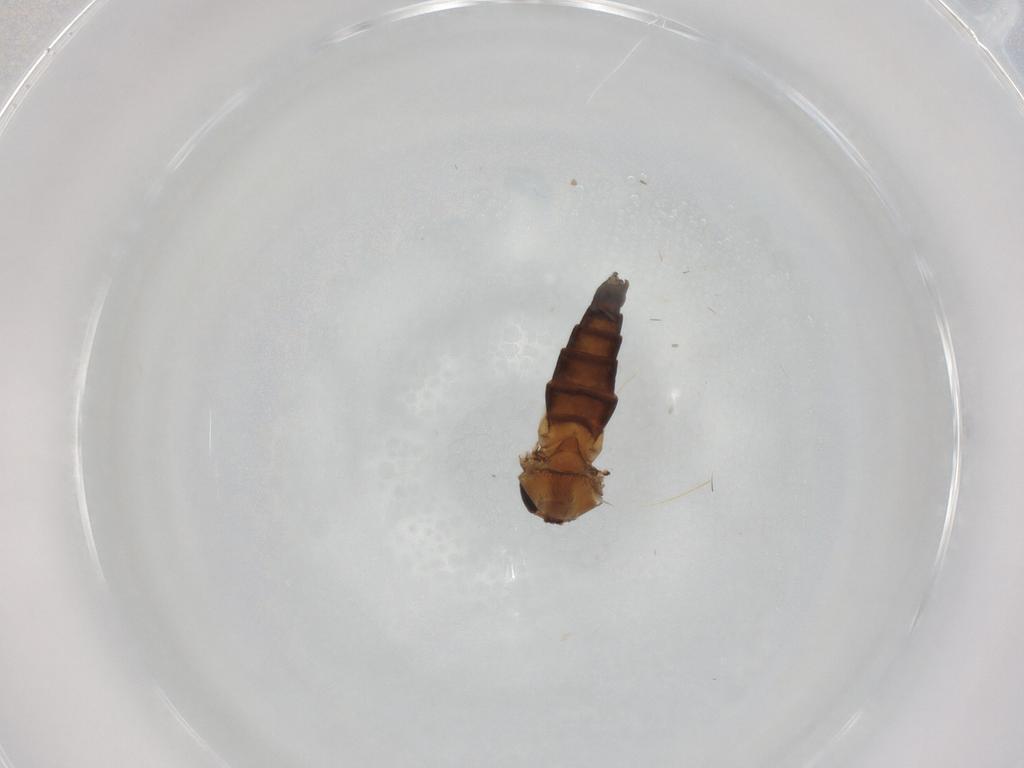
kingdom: Animalia
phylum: Arthropoda
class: Insecta
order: Diptera
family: Phoridae
